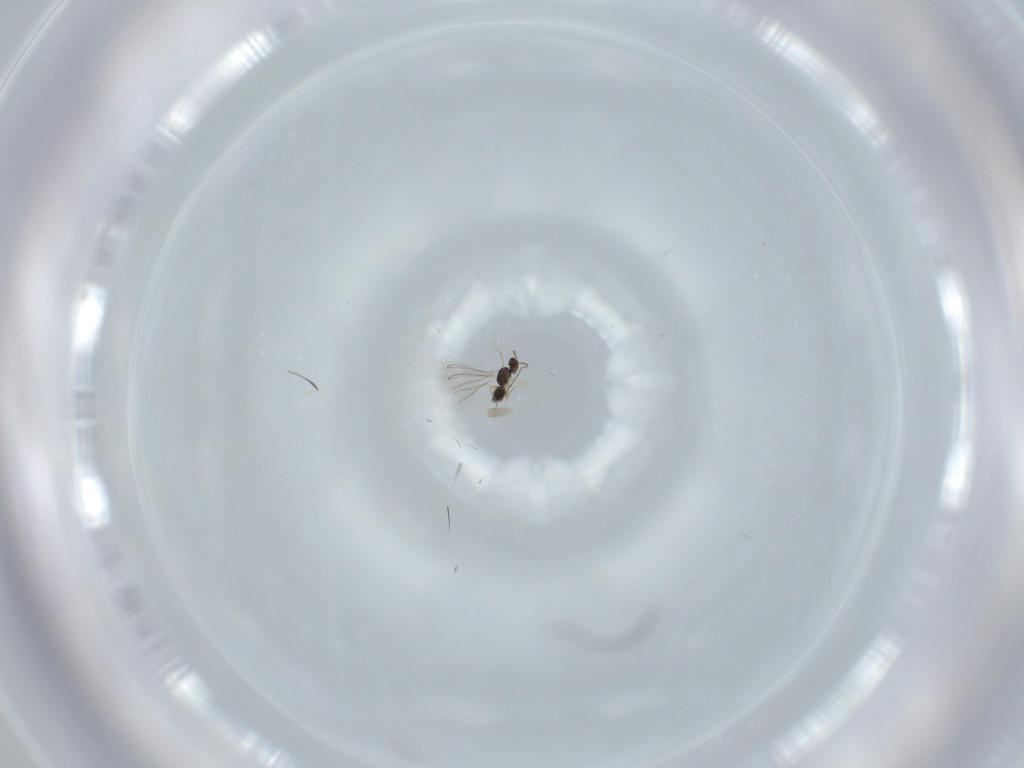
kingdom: Animalia
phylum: Arthropoda
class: Insecta
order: Hymenoptera
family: Mymaridae
